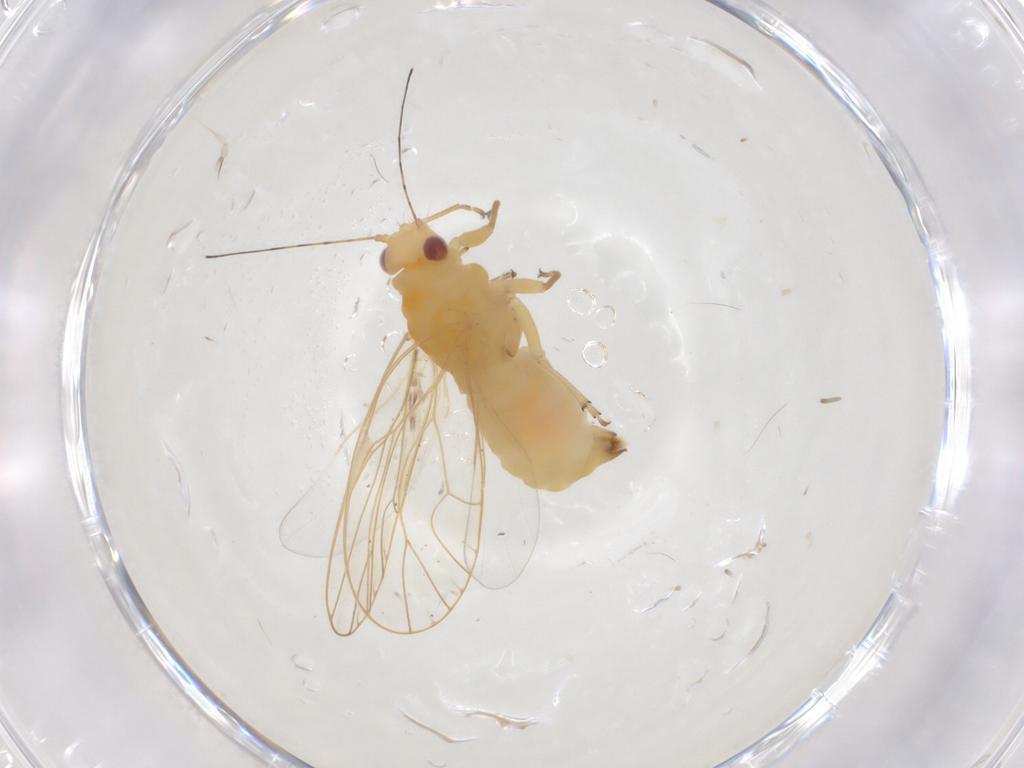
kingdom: Animalia
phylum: Arthropoda
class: Insecta
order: Hemiptera
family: Psyllidae
